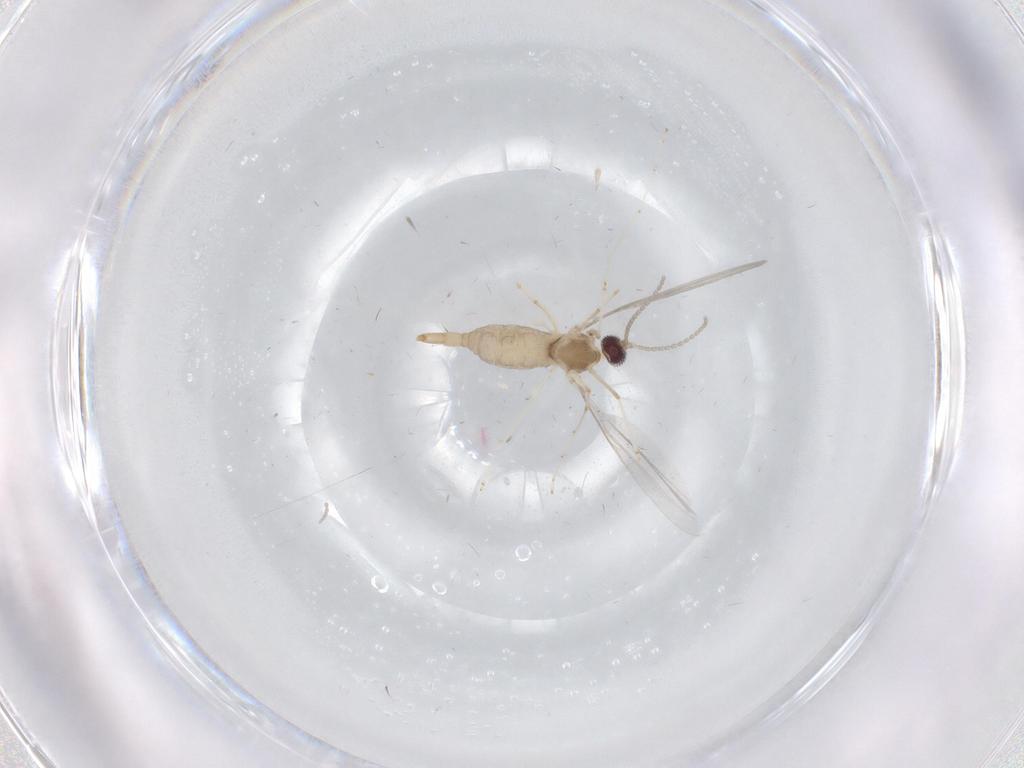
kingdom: Animalia
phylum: Arthropoda
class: Insecta
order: Diptera
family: Cecidomyiidae
